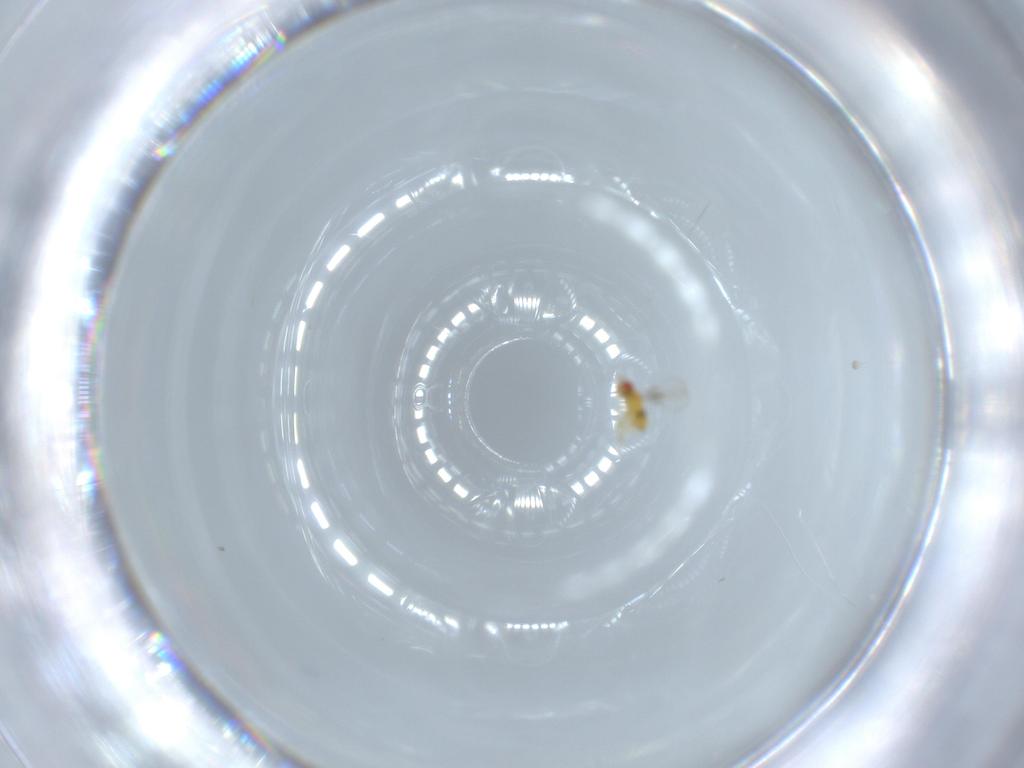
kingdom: Animalia
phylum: Arthropoda
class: Insecta
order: Hymenoptera
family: Trichogrammatidae
